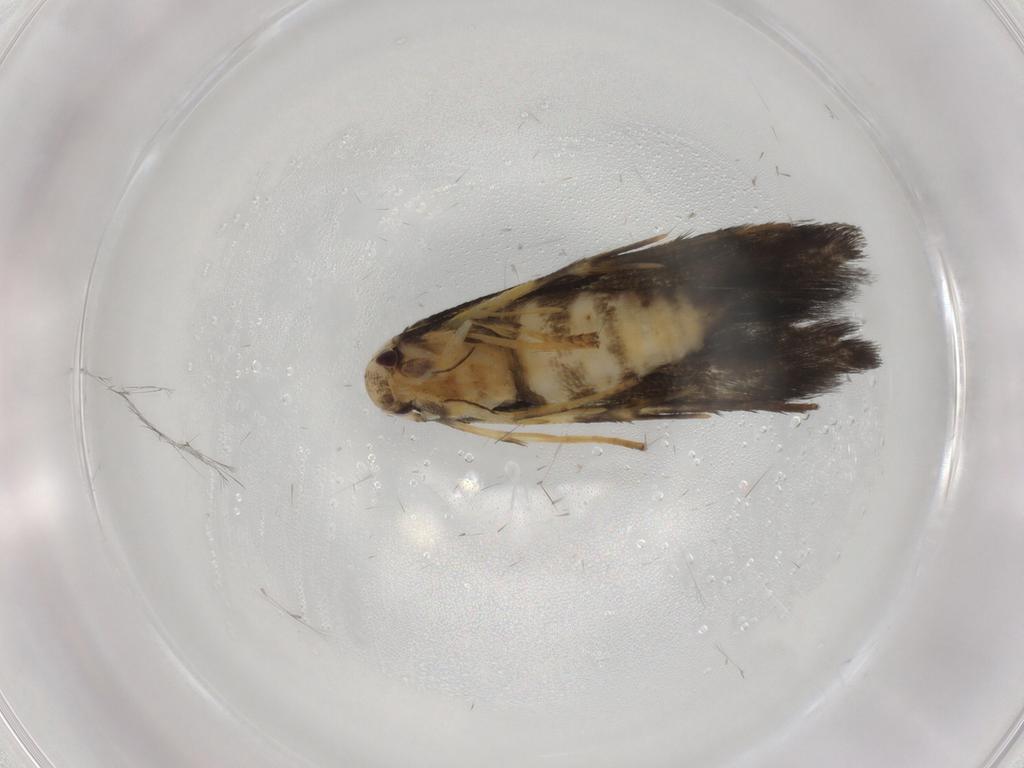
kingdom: Animalia
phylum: Arthropoda
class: Insecta
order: Lepidoptera
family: Stathmopodidae
